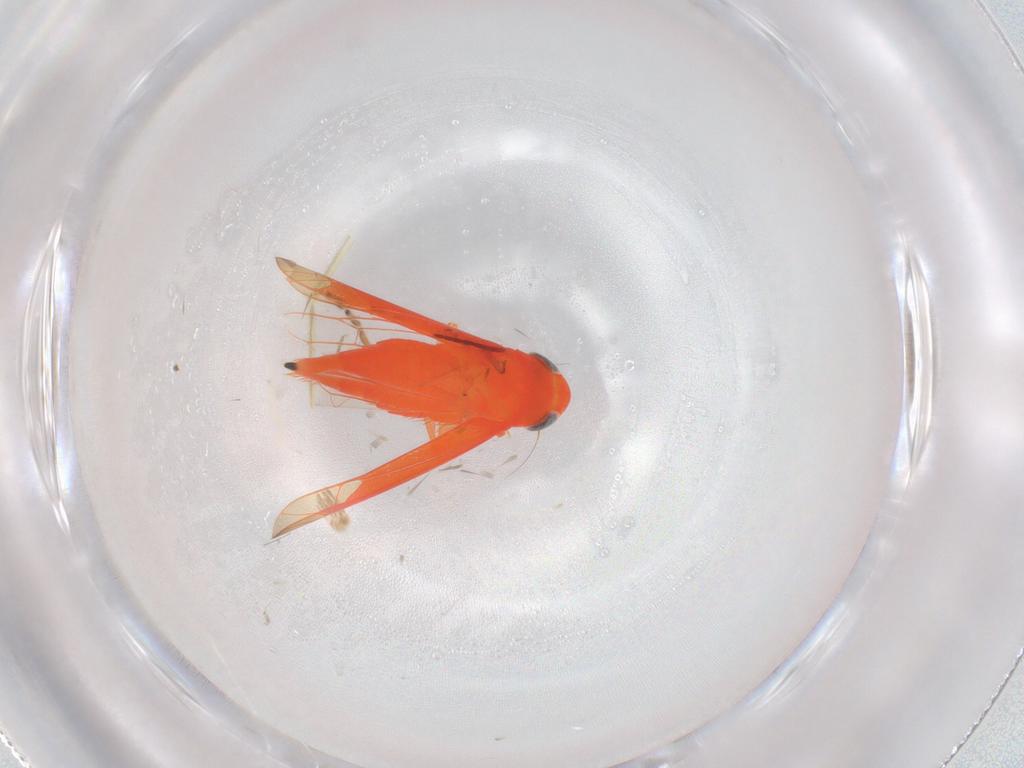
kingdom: Animalia
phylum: Arthropoda
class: Insecta
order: Hemiptera
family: Cicadellidae
